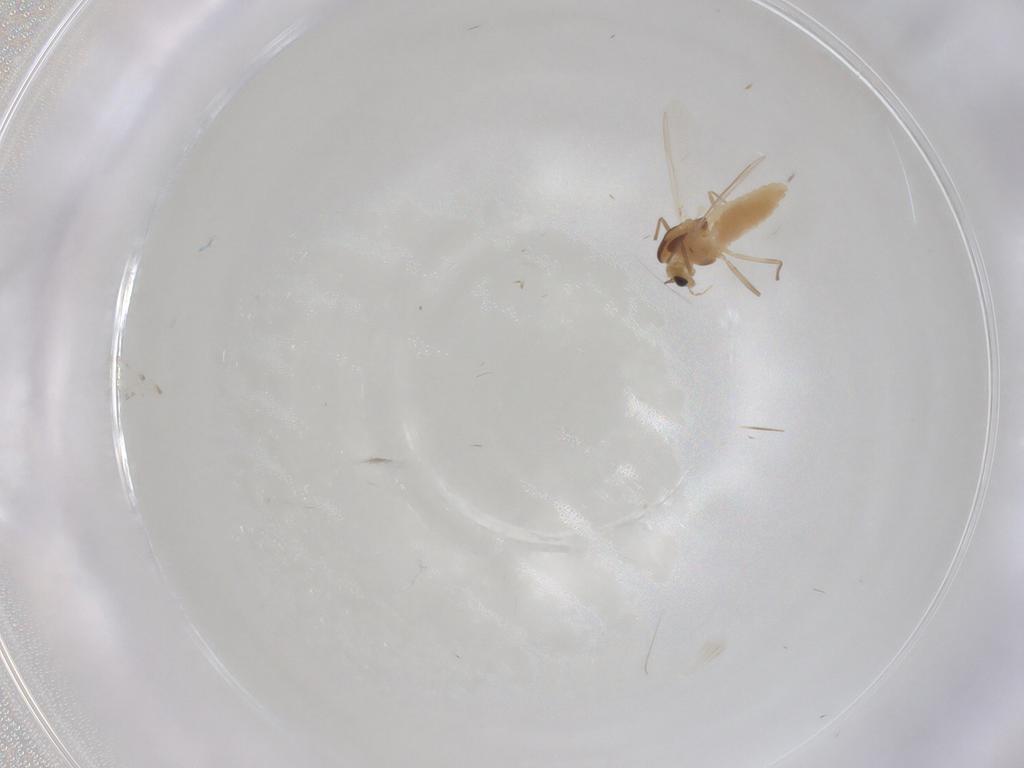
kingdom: Animalia
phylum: Arthropoda
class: Insecta
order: Diptera
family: Chironomidae
